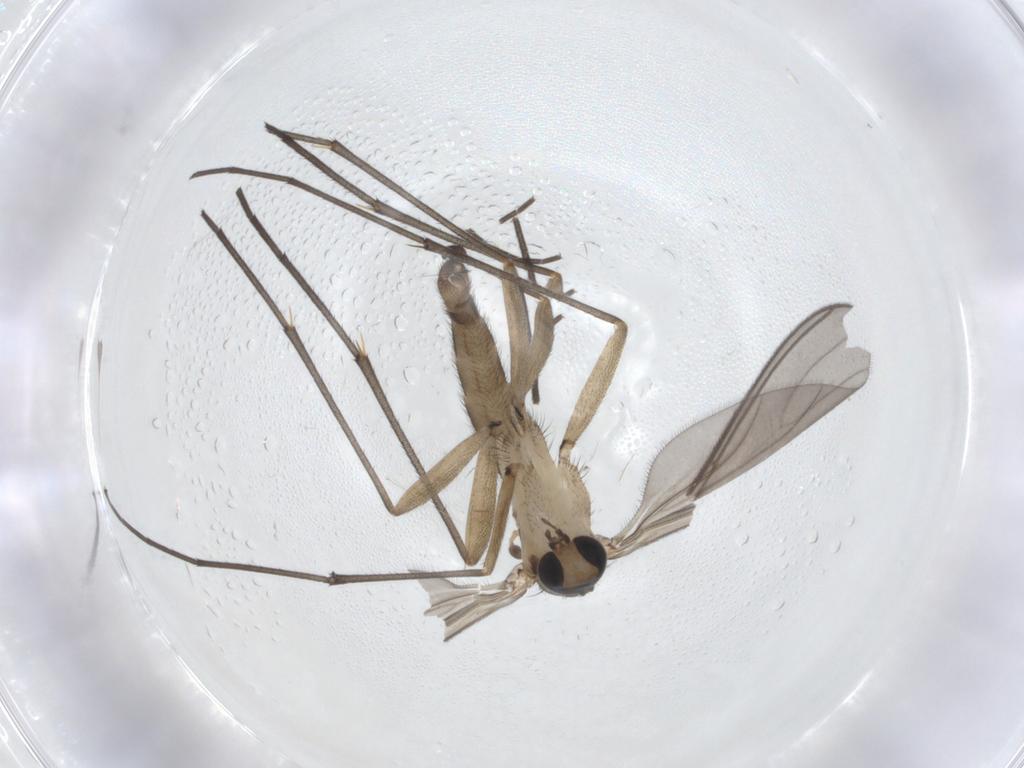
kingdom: Animalia
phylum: Arthropoda
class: Insecta
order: Diptera
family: Sciaridae
